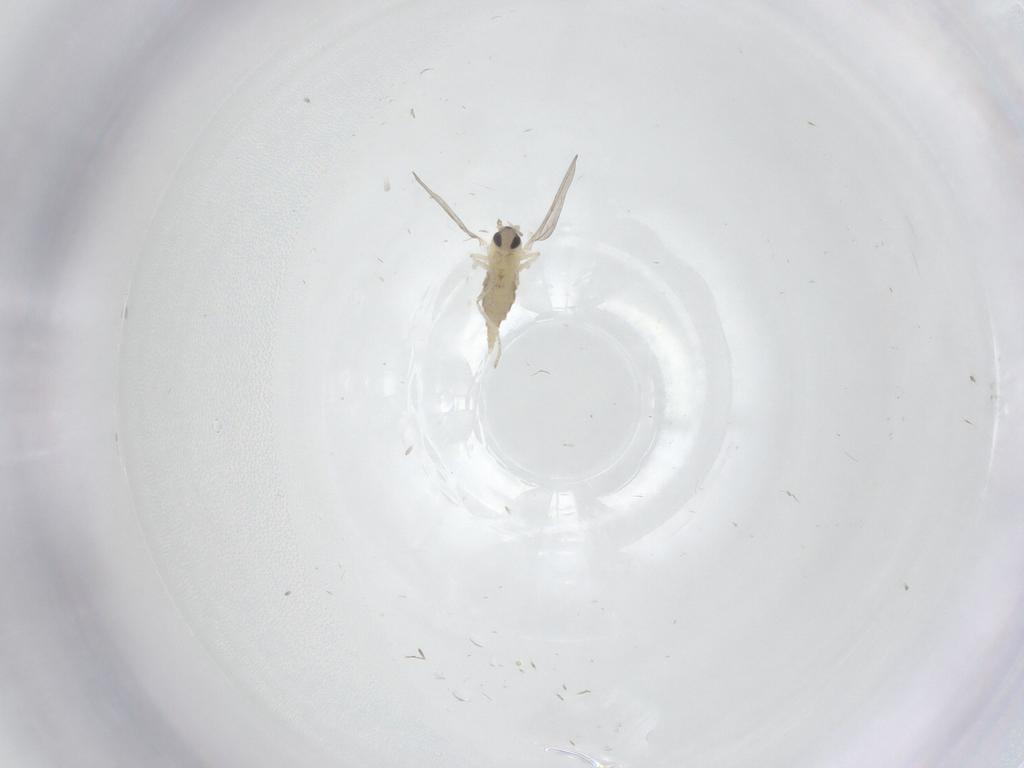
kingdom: Animalia
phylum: Arthropoda
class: Insecta
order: Diptera
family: Cecidomyiidae
